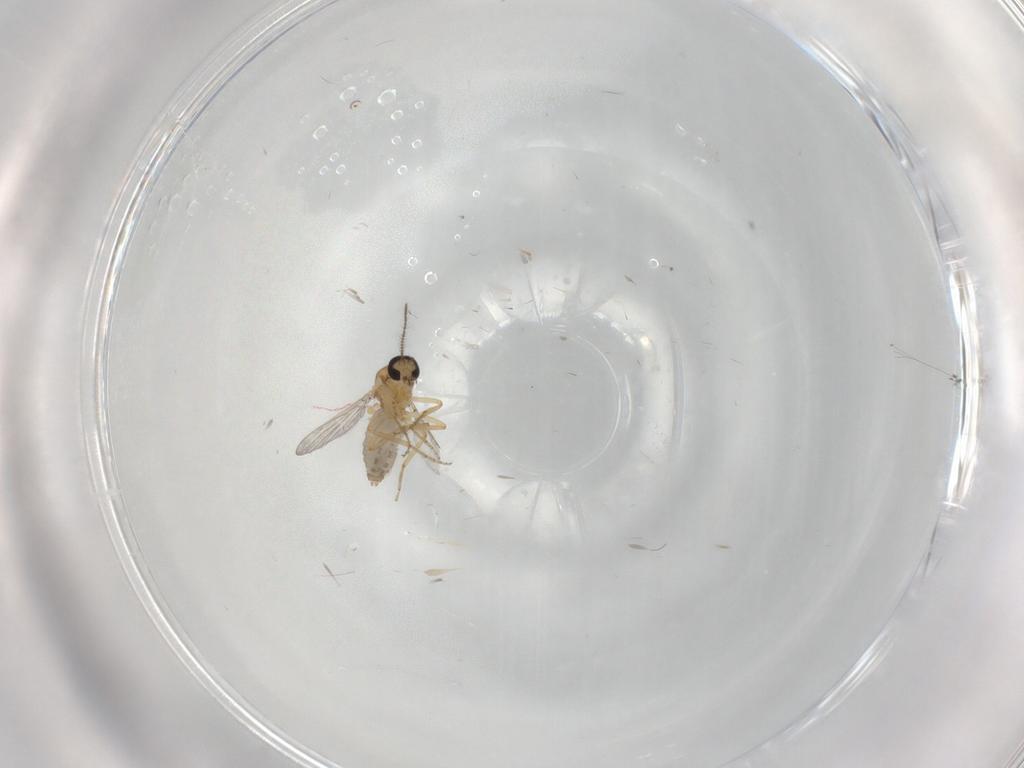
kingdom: Animalia
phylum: Arthropoda
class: Insecta
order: Diptera
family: Ceratopogonidae
